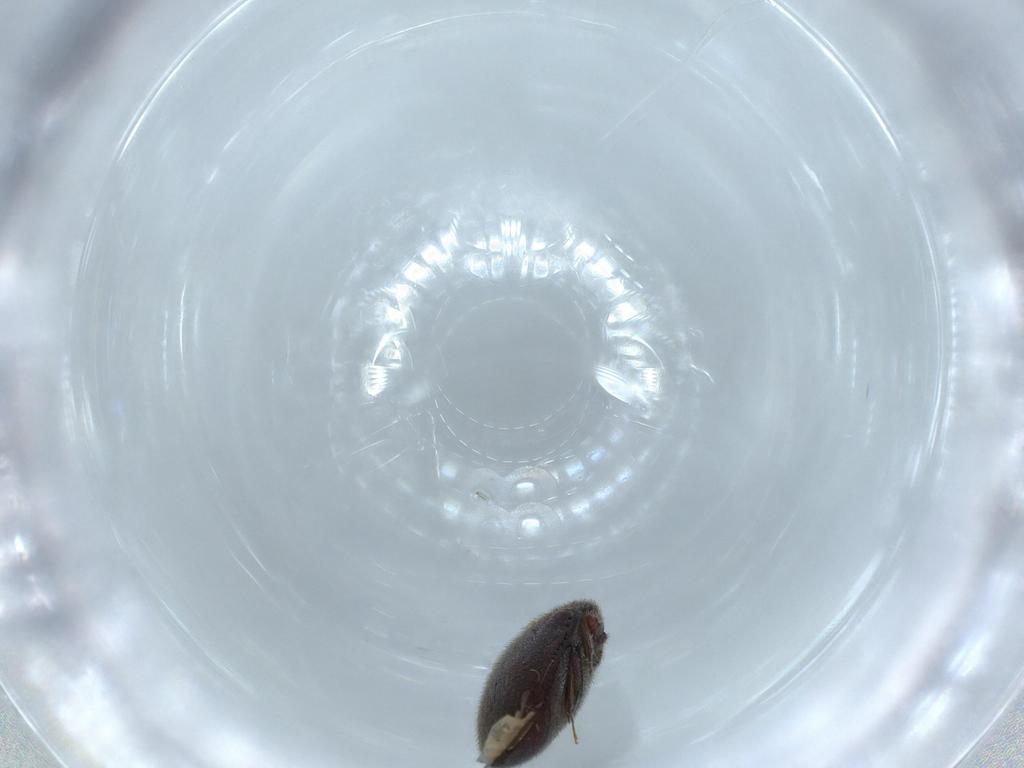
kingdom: Animalia
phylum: Arthropoda
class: Insecta
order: Coleoptera
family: Throscidae
